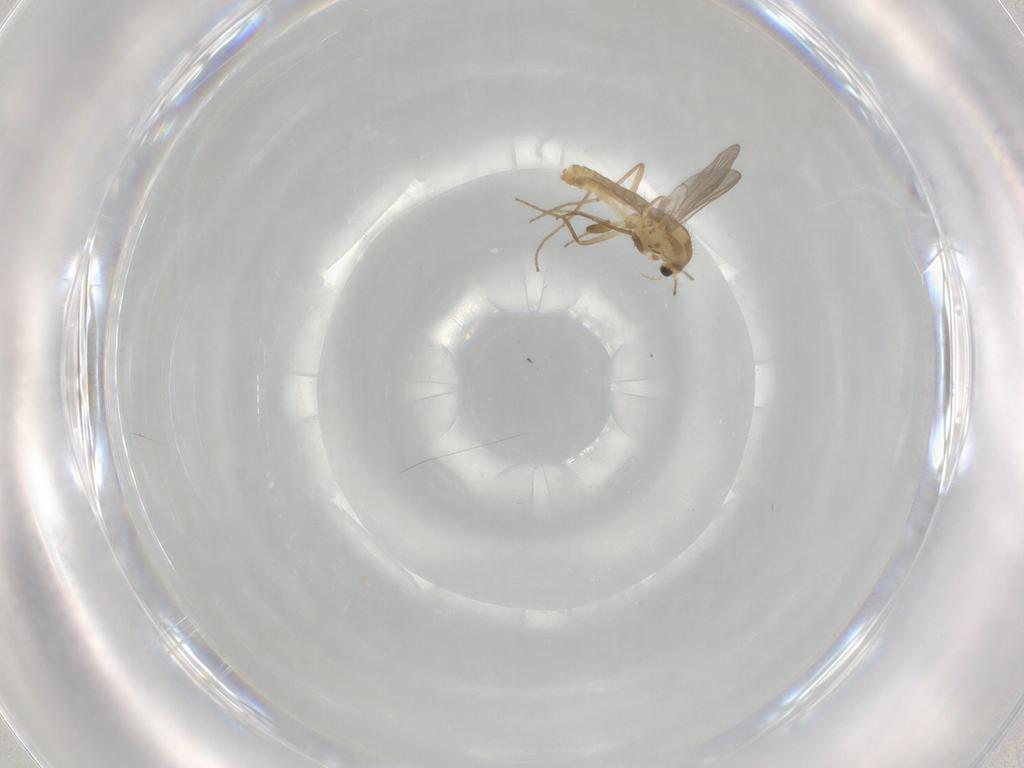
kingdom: Animalia
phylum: Arthropoda
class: Insecta
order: Diptera
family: Chironomidae
